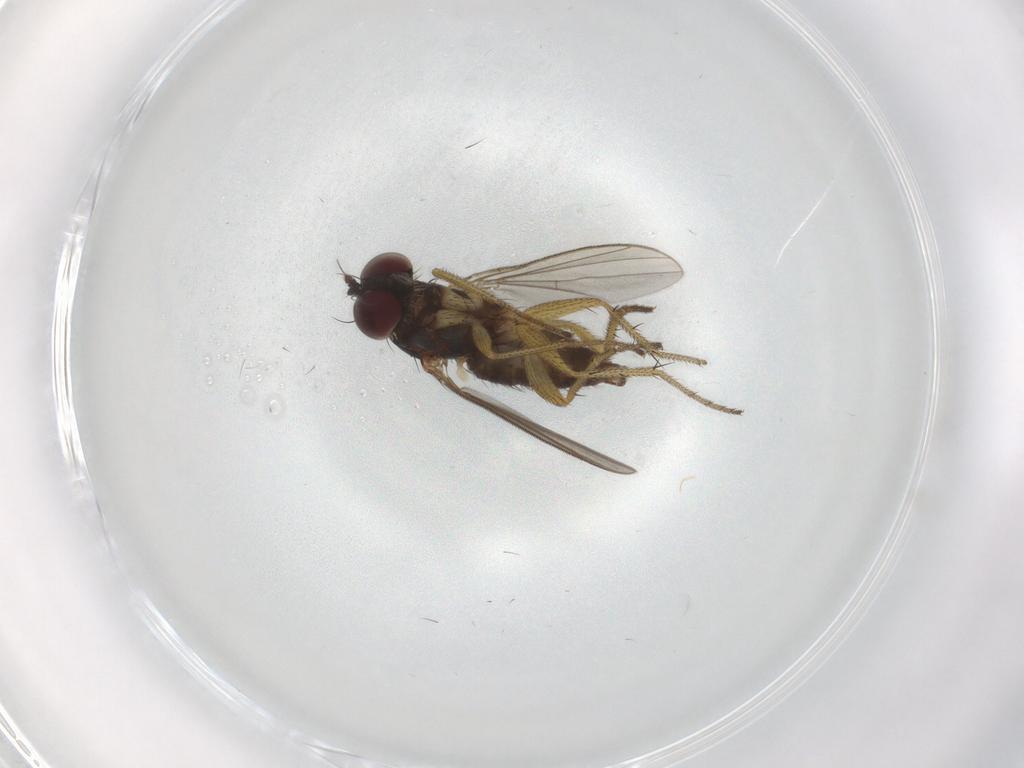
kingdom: Animalia
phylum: Arthropoda
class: Insecta
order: Diptera
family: Dolichopodidae
